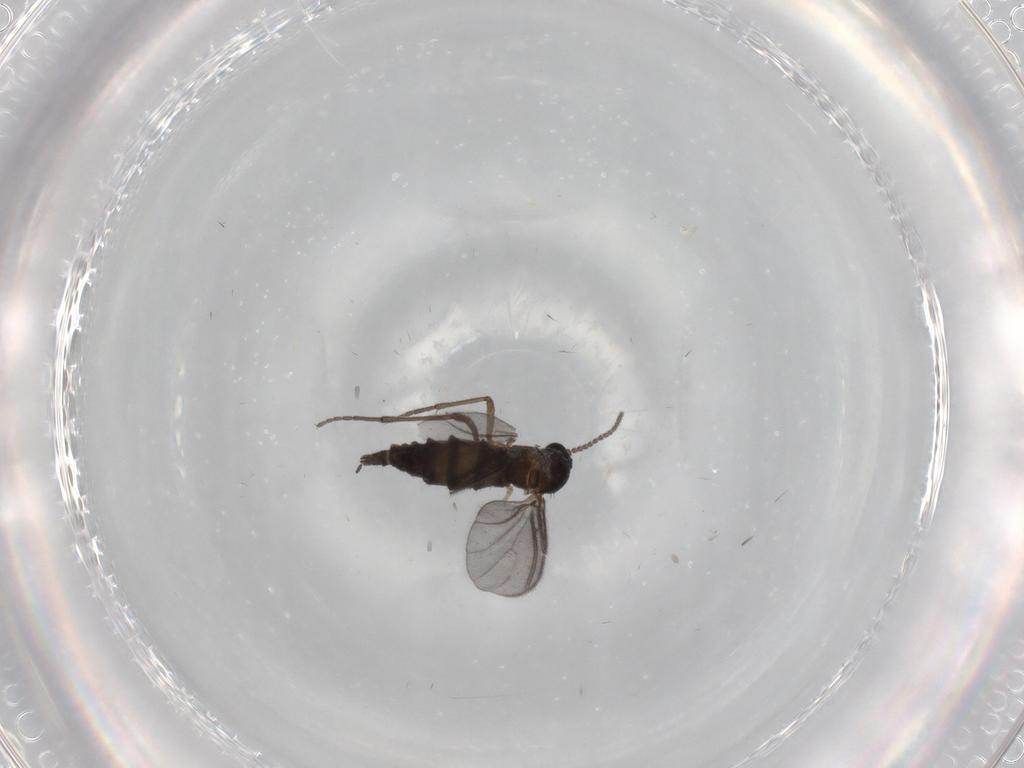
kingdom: Animalia
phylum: Arthropoda
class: Insecta
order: Diptera
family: Sciaridae
